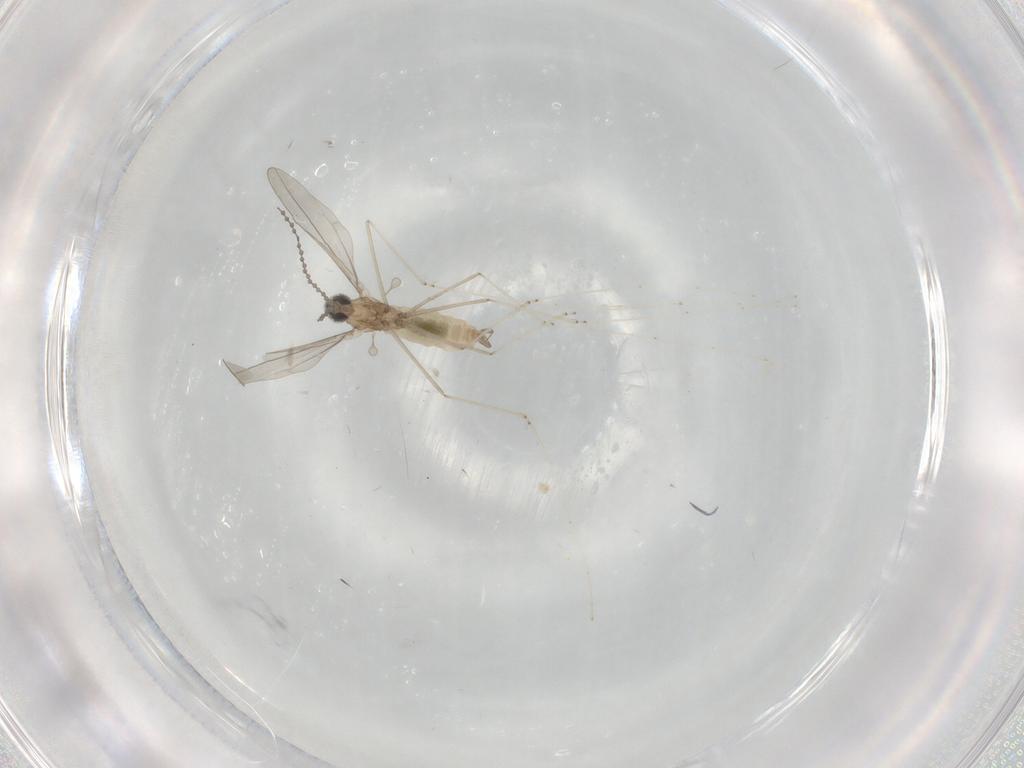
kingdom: Animalia
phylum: Arthropoda
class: Insecta
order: Diptera
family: Cecidomyiidae
